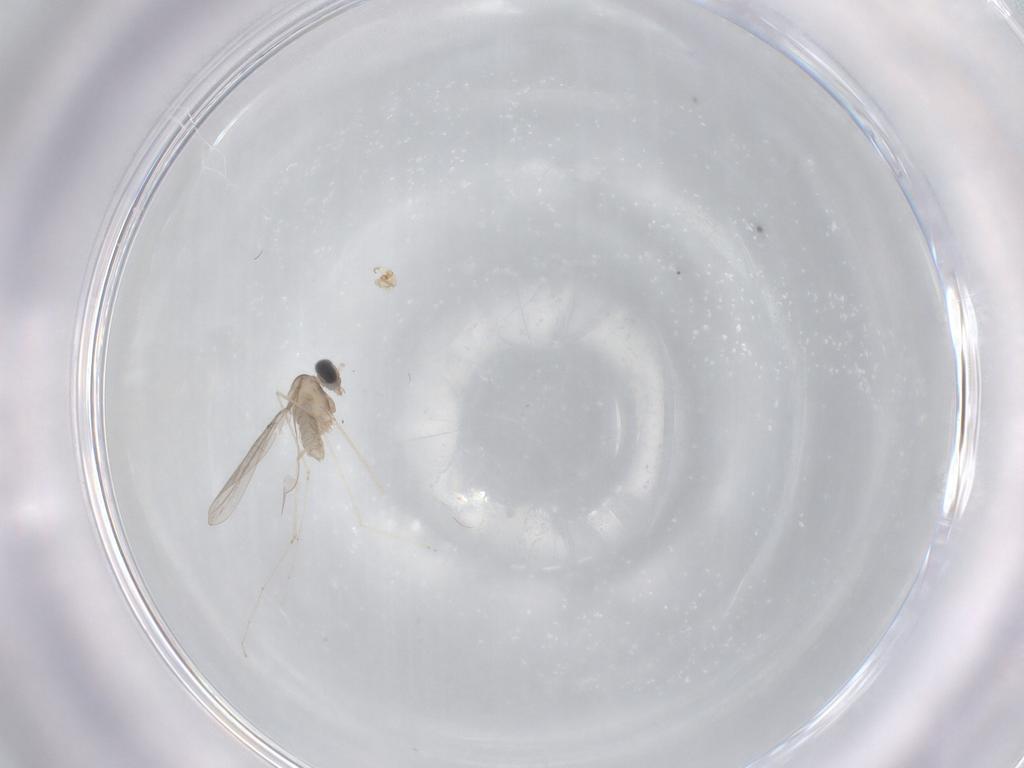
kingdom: Animalia
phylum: Arthropoda
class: Insecta
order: Diptera
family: Cecidomyiidae
